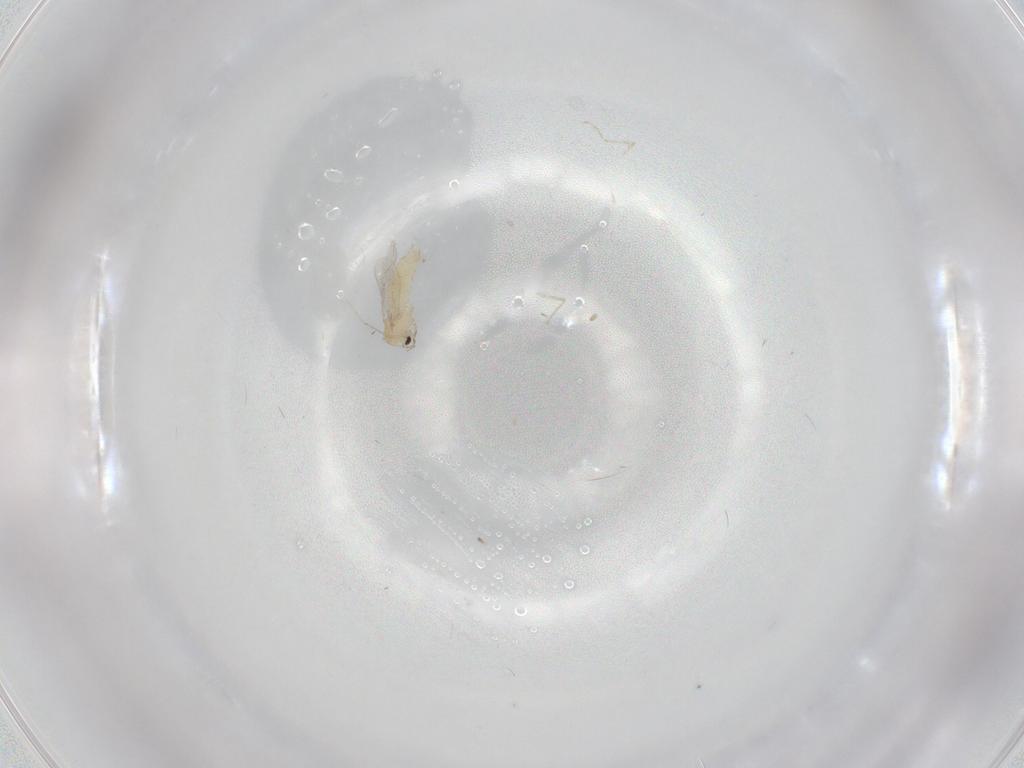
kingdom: Animalia
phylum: Arthropoda
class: Insecta
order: Diptera
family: Chironomidae
